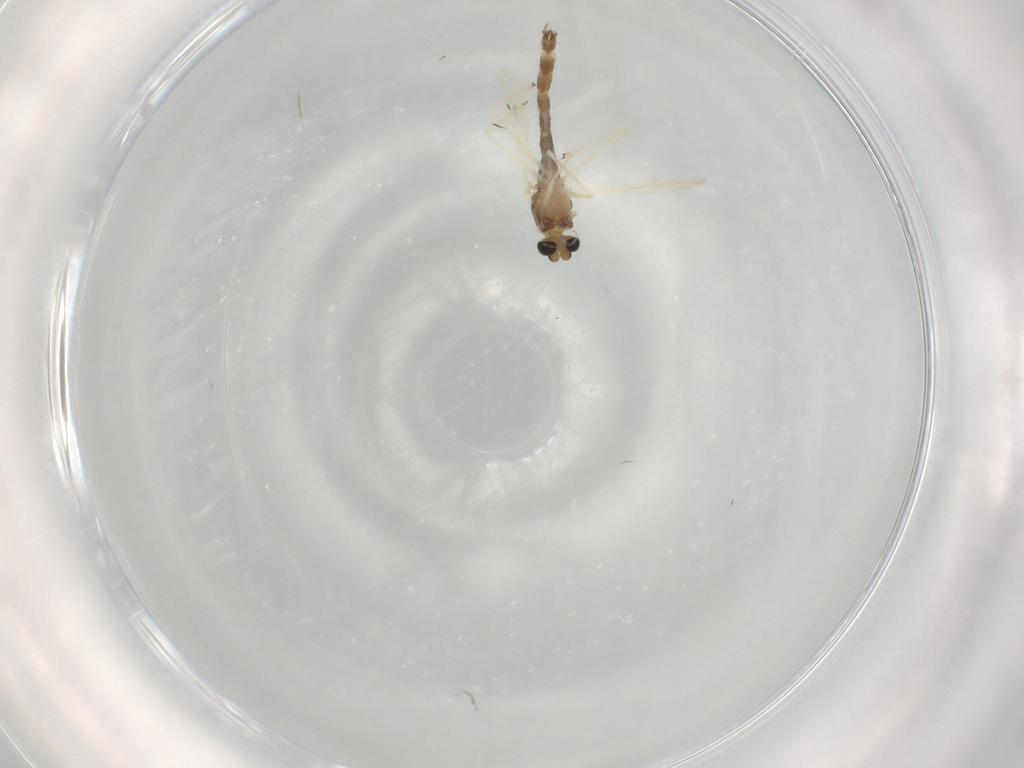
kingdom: Animalia
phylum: Arthropoda
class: Insecta
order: Diptera
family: Chironomidae
